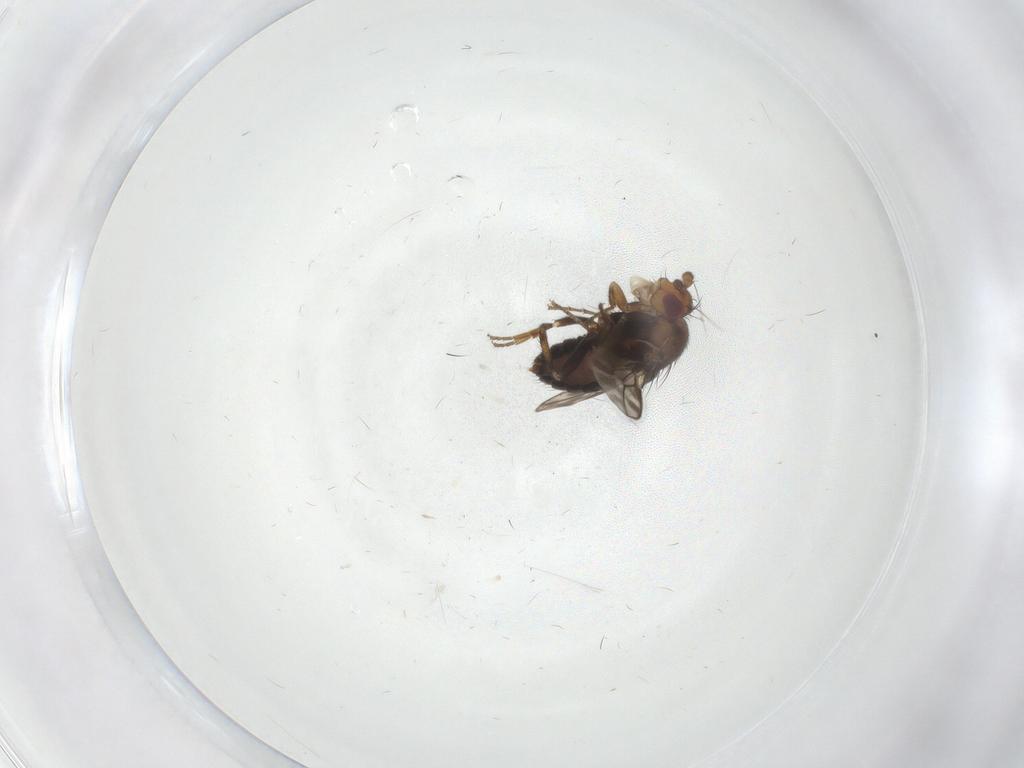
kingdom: Animalia
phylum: Arthropoda
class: Insecta
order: Diptera
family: Sphaeroceridae
